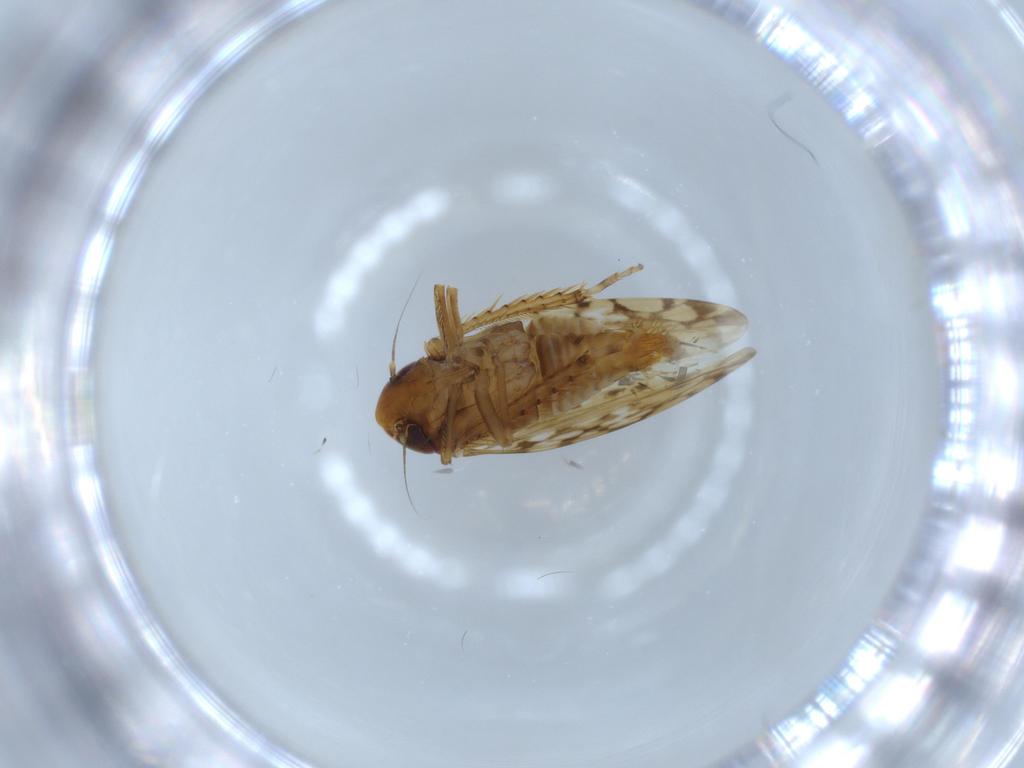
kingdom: Animalia
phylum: Arthropoda
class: Insecta
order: Hemiptera
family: Cicadellidae
